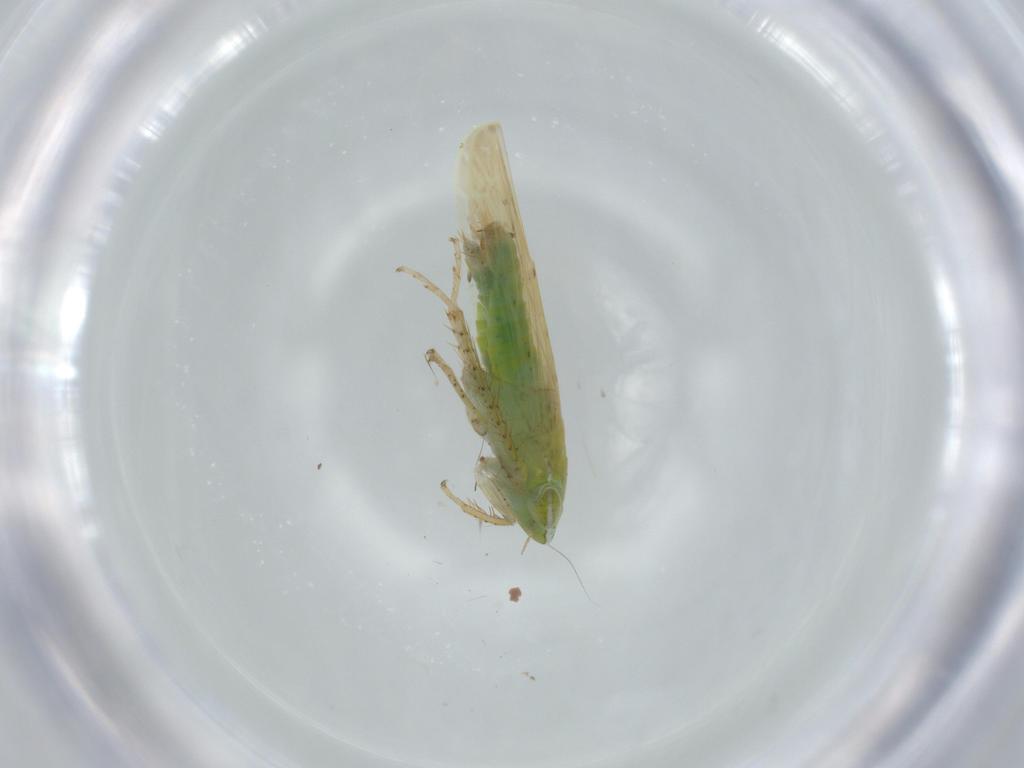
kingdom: Animalia
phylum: Arthropoda
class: Insecta
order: Hemiptera
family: Cicadellidae
